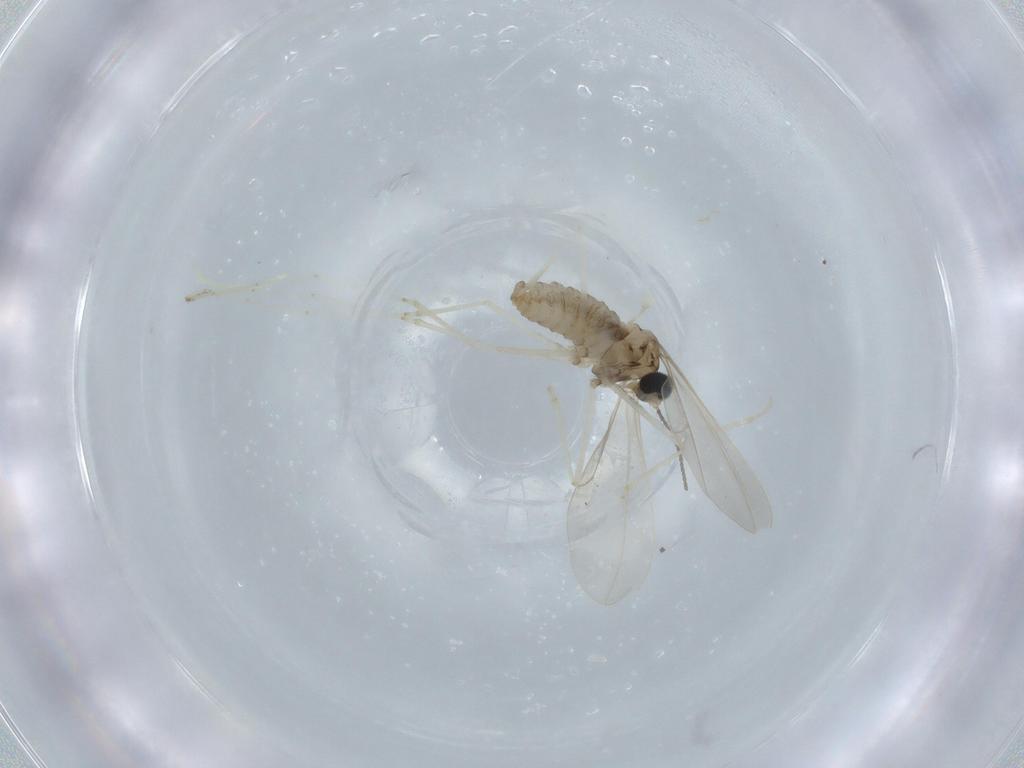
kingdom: Animalia
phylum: Arthropoda
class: Insecta
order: Diptera
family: Cecidomyiidae
